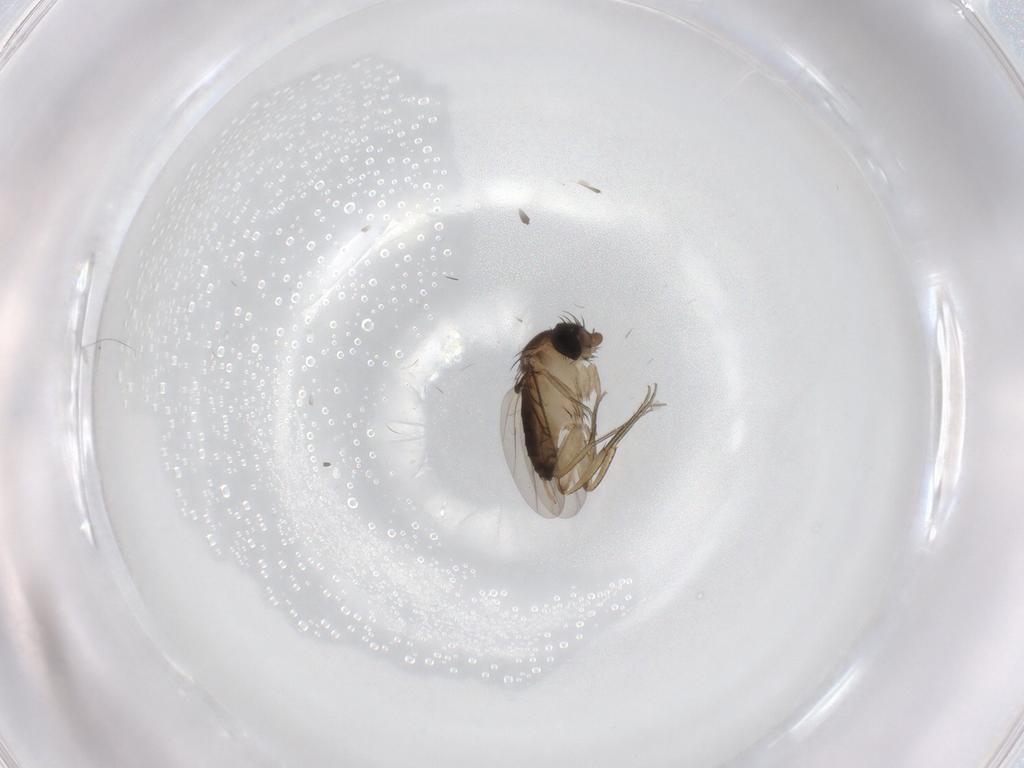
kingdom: Animalia
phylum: Arthropoda
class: Insecta
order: Diptera
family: Phoridae
